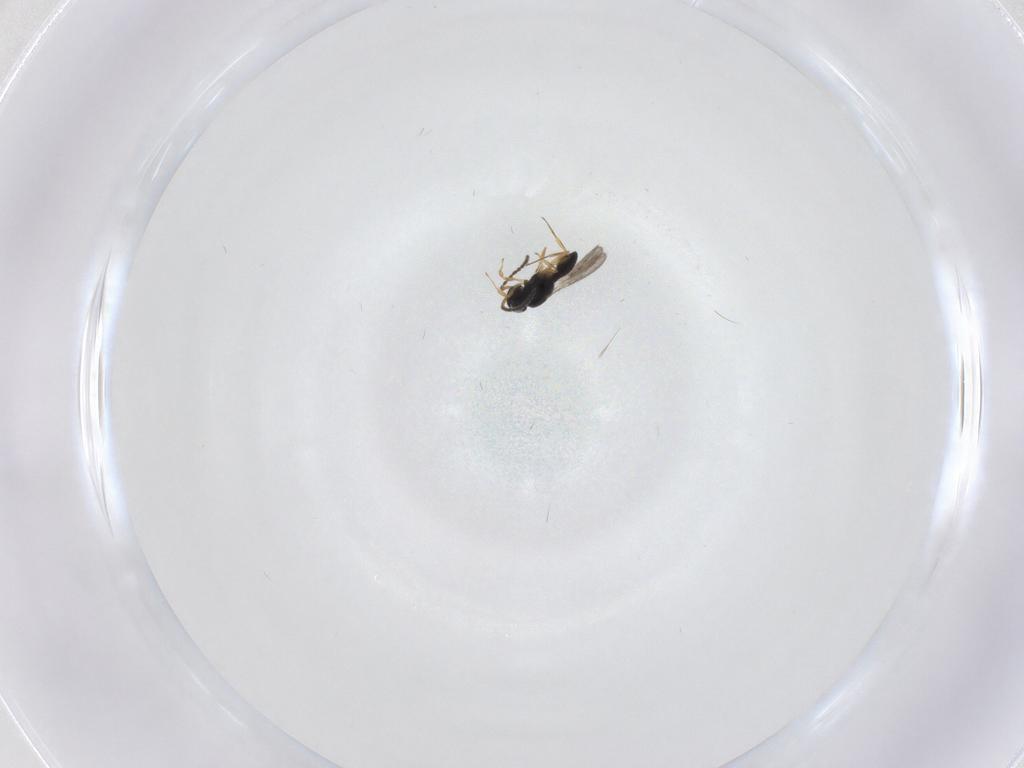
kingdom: Animalia
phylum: Arthropoda
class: Insecta
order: Hymenoptera
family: Scelionidae
